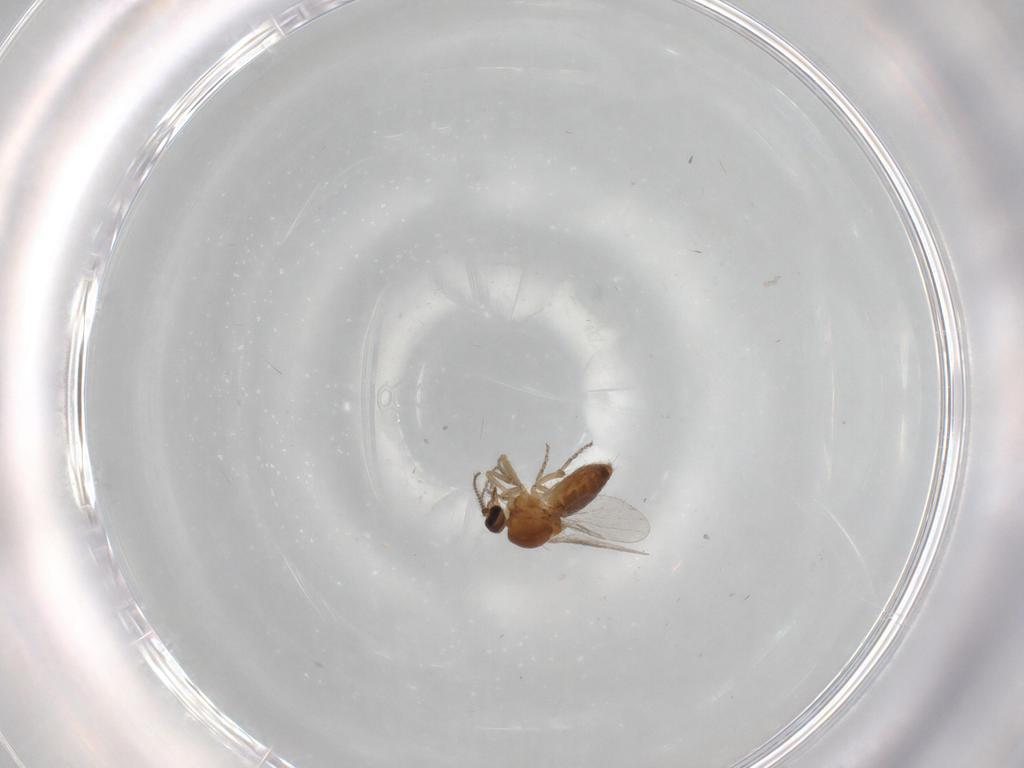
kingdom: Animalia
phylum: Arthropoda
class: Insecta
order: Diptera
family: Ceratopogonidae
